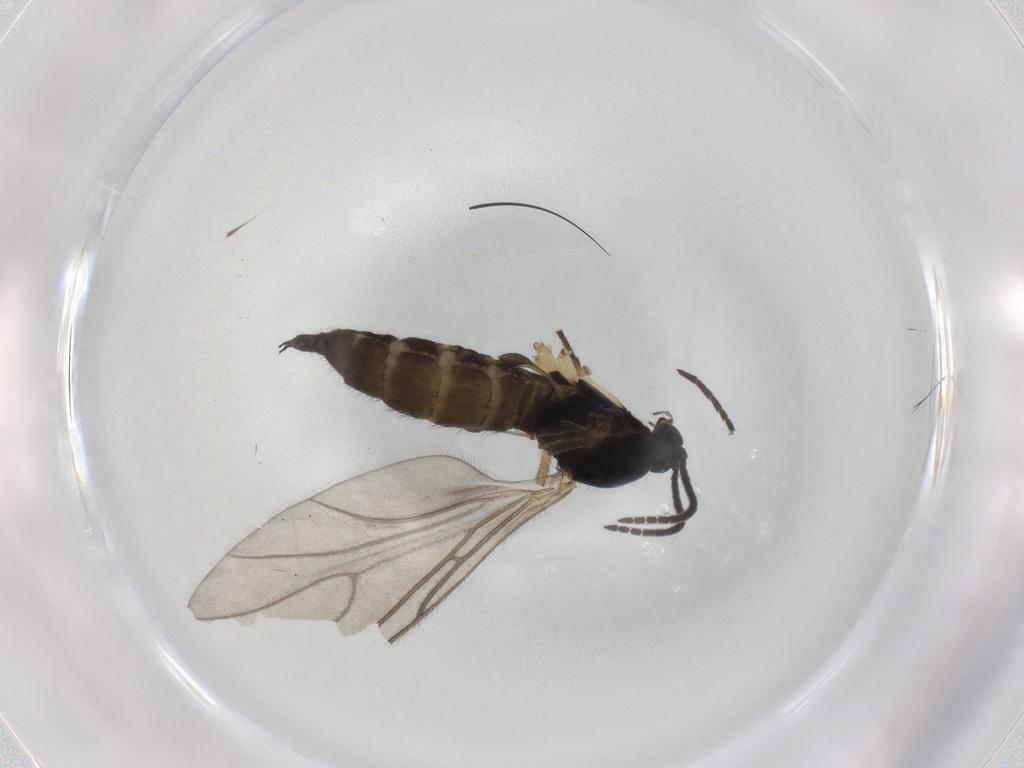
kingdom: Animalia
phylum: Arthropoda
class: Insecta
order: Diptera
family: Sciaridae
